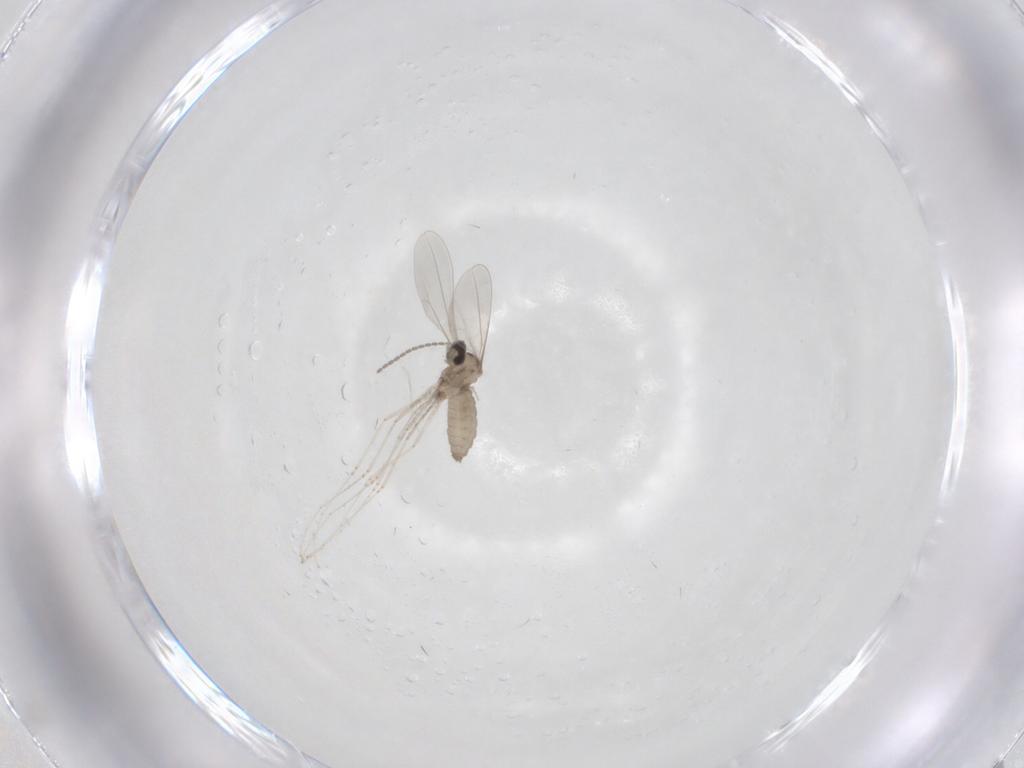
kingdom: Animalia
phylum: Arthropoda
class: Insecta
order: Diptera
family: Cecidomyiidae
